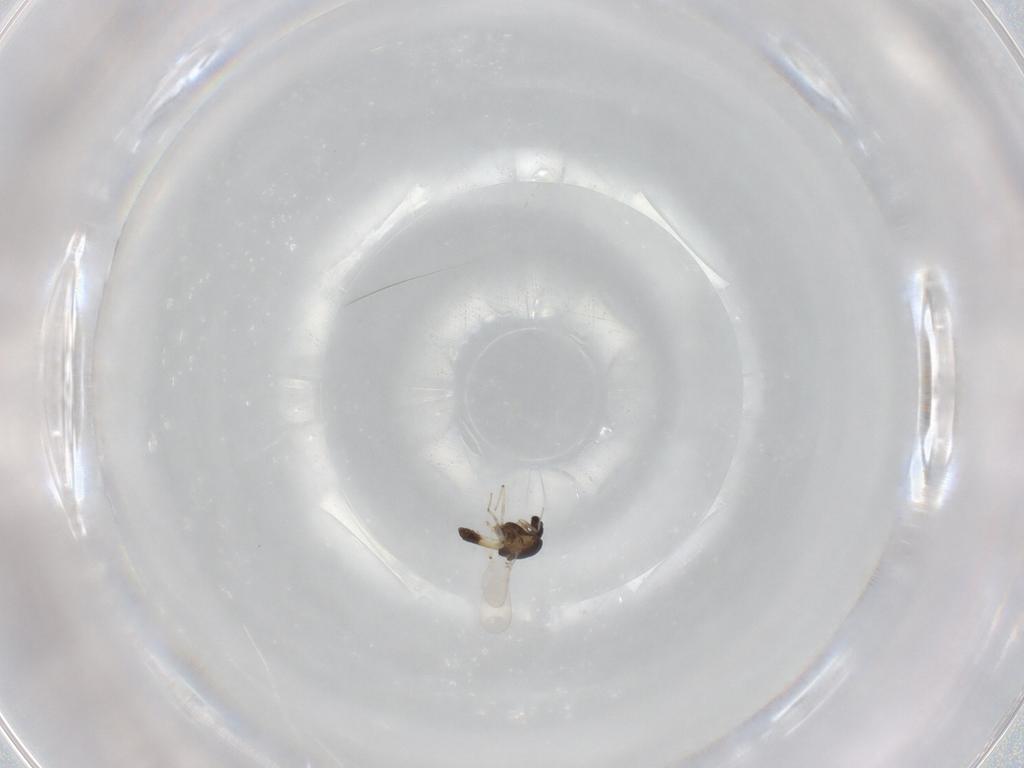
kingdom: Animalia
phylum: Arthropoda
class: Insecta
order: Diptera
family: Chironomidae
